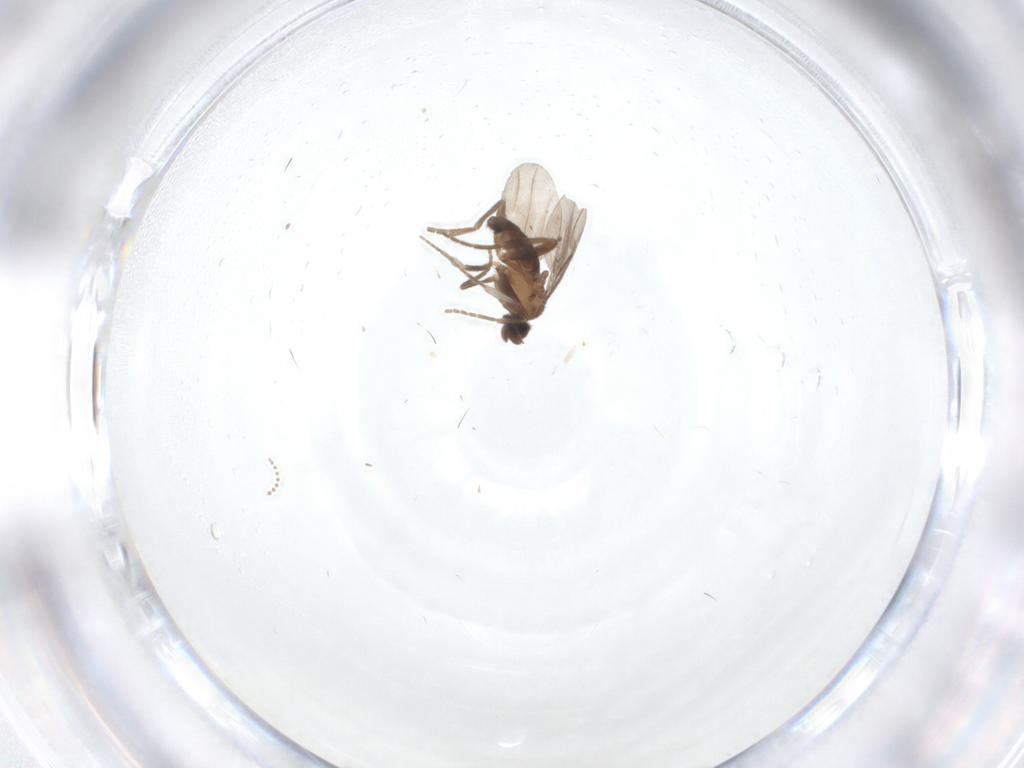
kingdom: Animalia
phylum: Arthropoda
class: Insecta
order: Diptera
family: Psychodidae
